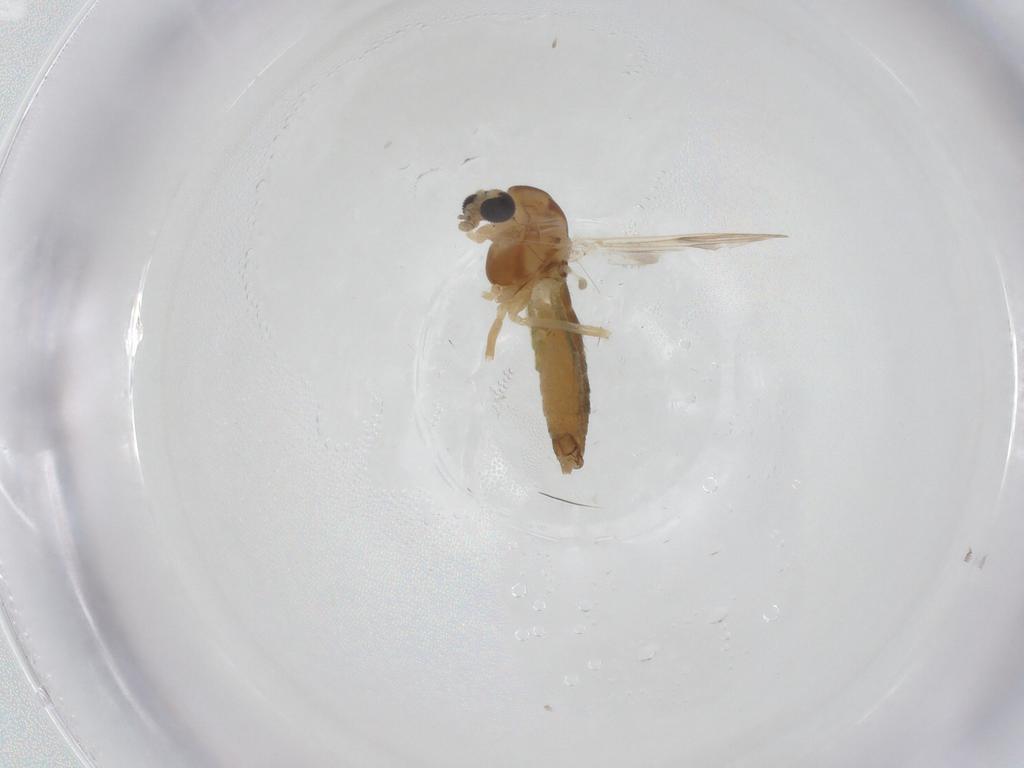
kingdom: Animalia
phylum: Arthropoda
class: Insecta
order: Diptera
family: Chironomidae
